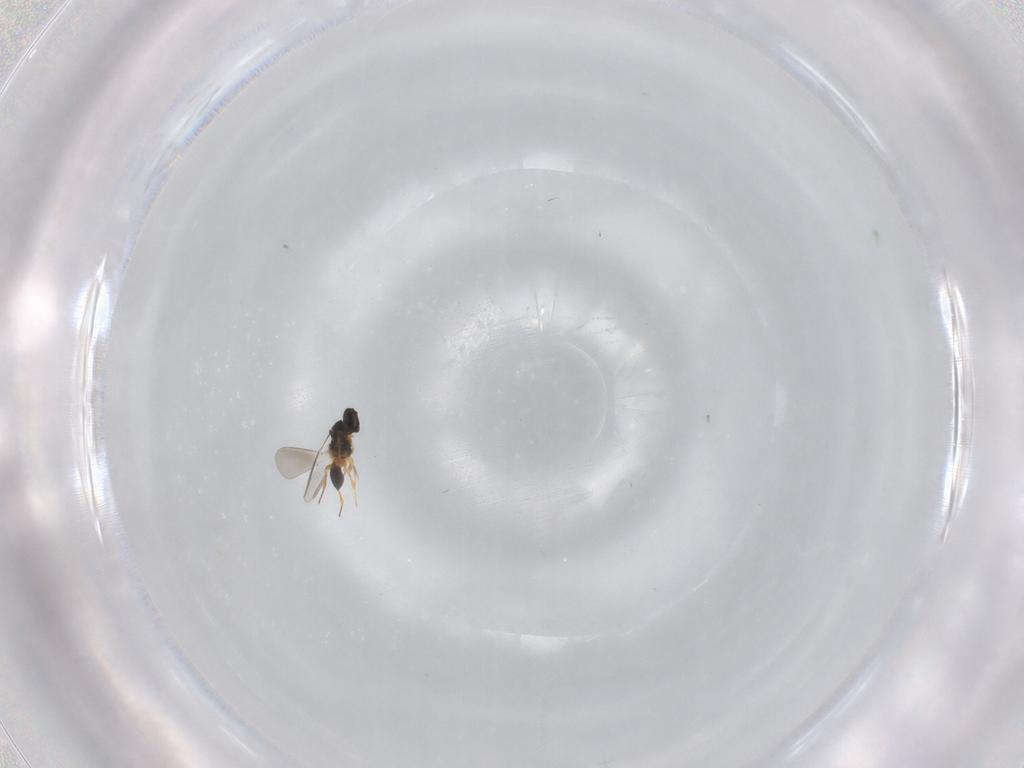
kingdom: Animalia
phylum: Arthropoda
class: Insecta
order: Hymenoptera
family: Platygastridae
